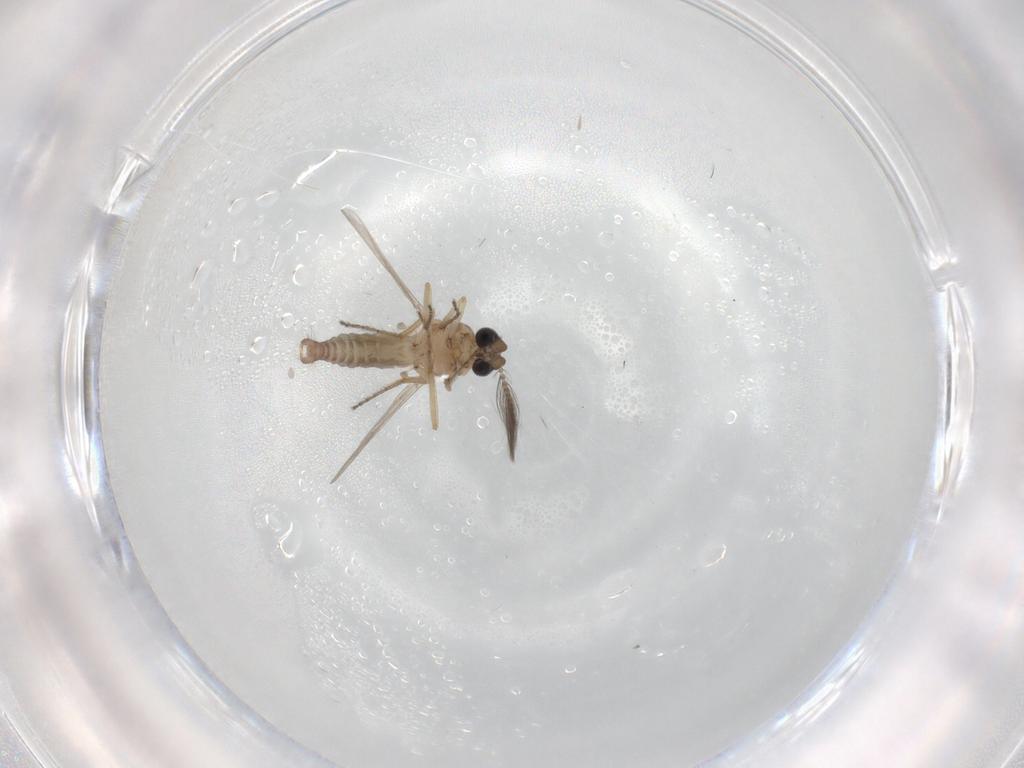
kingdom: Animalia
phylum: Arthropoda
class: Insecta
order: Diptera
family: Ceratopogonidae
